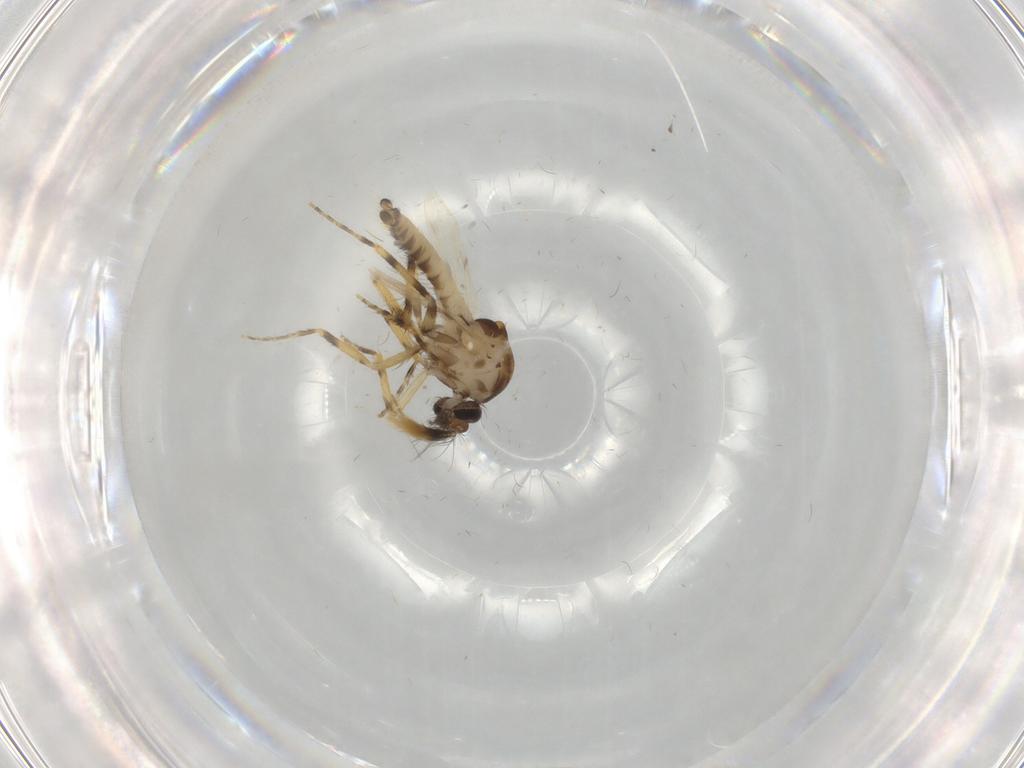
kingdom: Animalia
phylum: Arthropoda
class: Insecta
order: Diptera
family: Ceratopogonidae
